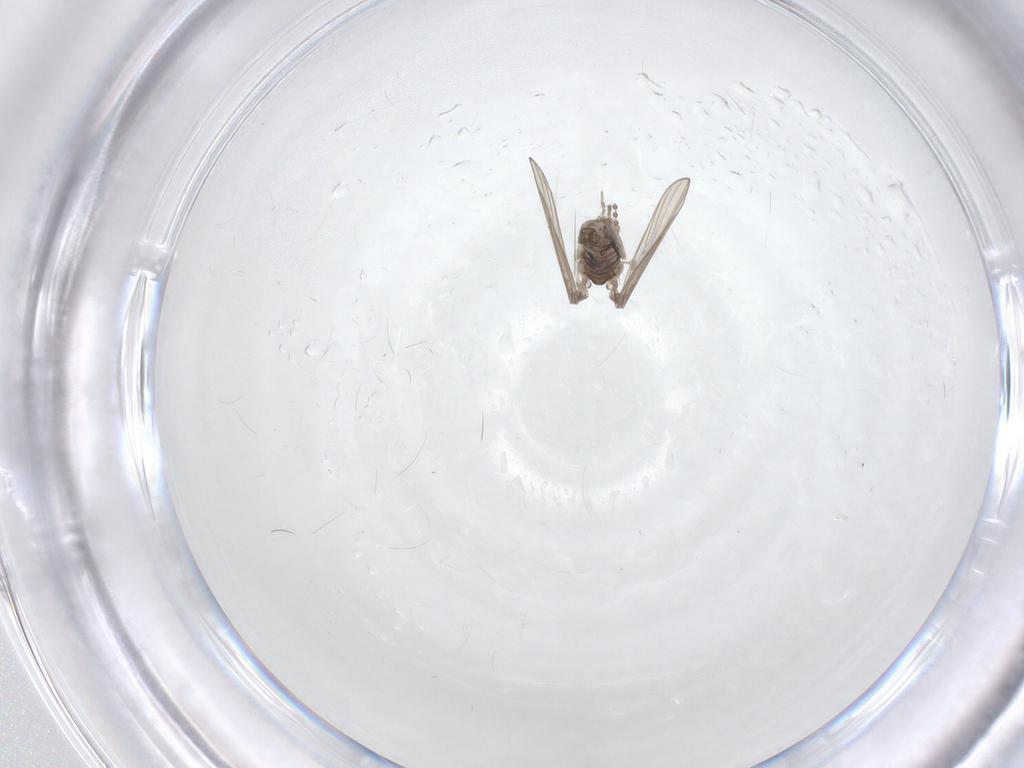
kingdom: Animalia
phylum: Arthropoda
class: Insecta
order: Diptera
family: Psychodidae
